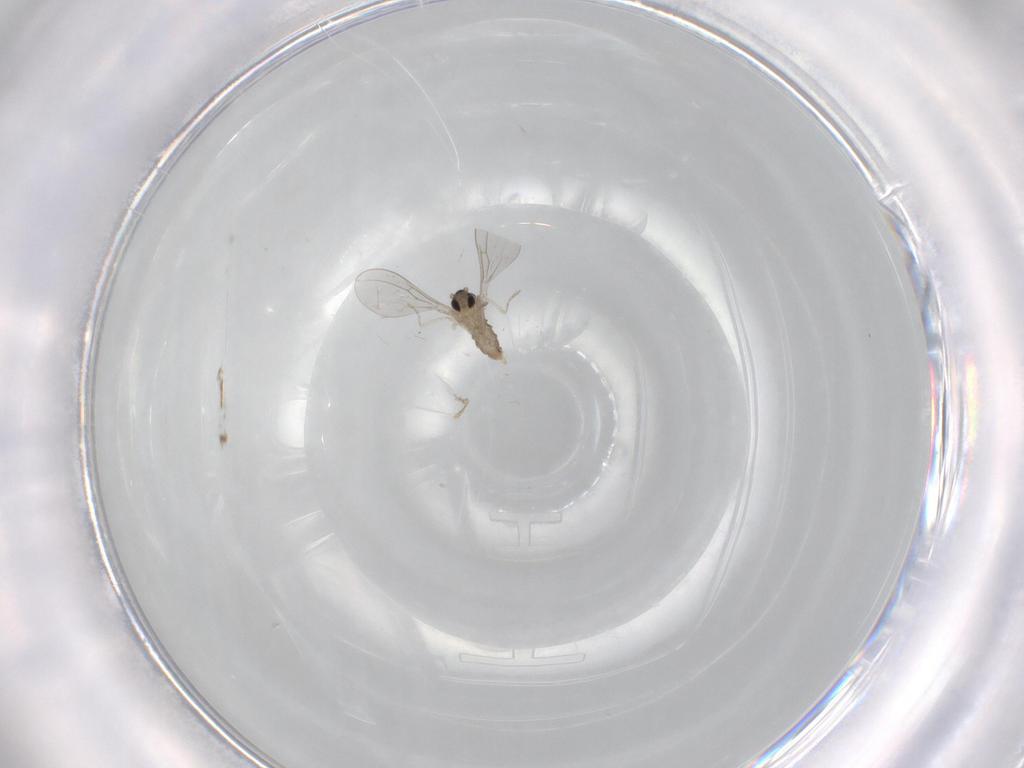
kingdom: Animalia
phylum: Arthropoda
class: Insecta
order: Diptera
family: Cecidomyiidae
